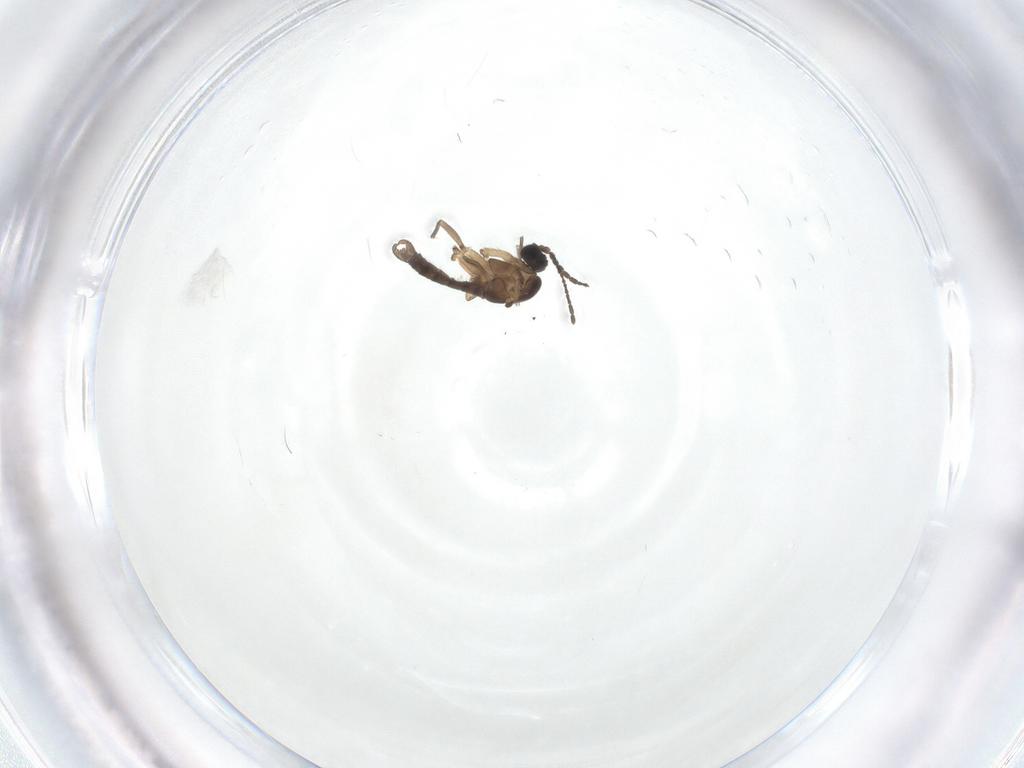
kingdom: Animalia
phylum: Arthropoda
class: Insecta
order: Diptera
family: Sciaridae
